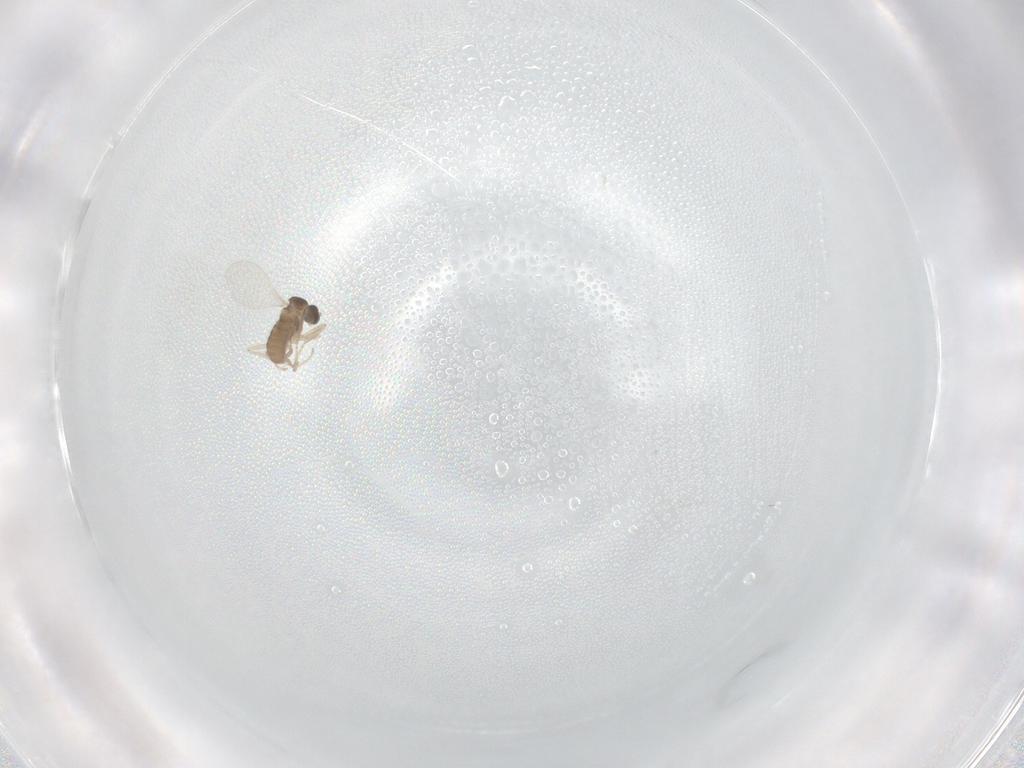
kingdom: Animalia
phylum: Arthropoda
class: Insecta
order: Diptera
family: Cecidomyiidae
